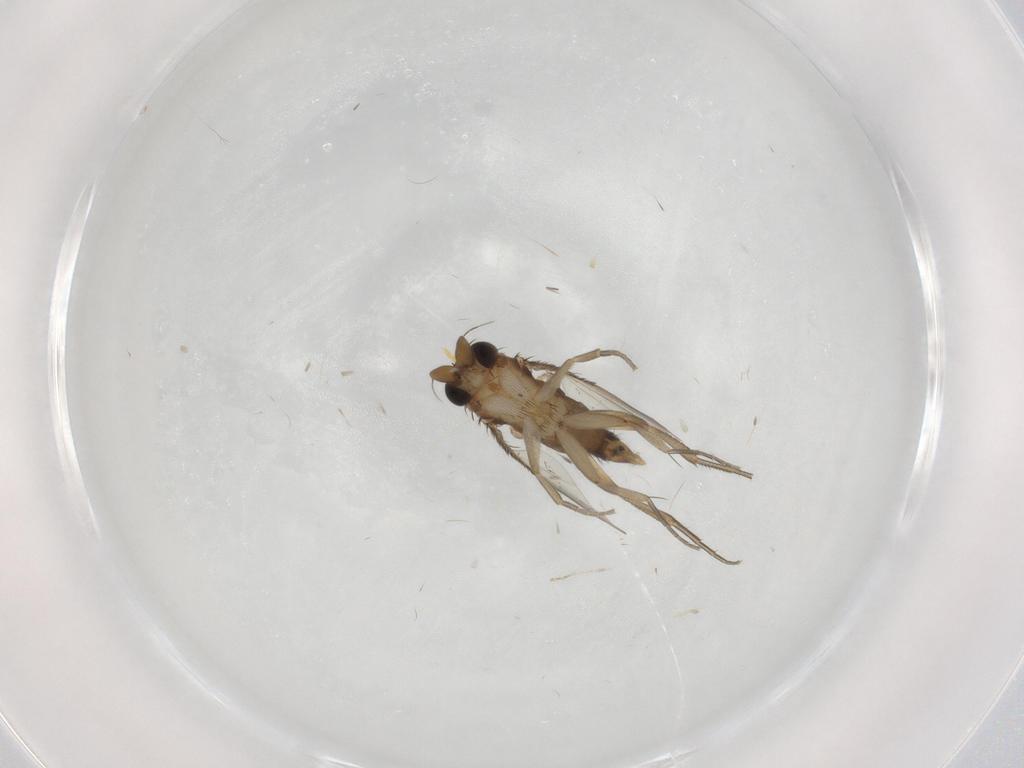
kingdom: Animalia
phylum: Arthropoda
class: Insecta
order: Diptera
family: Phoridae
